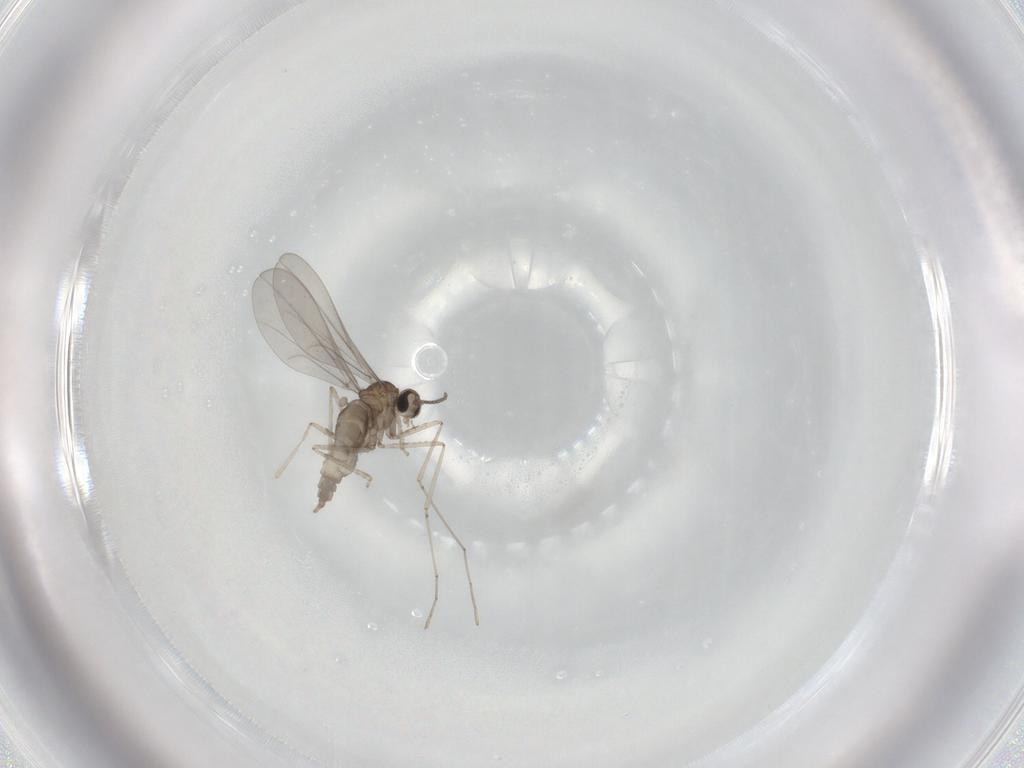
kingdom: Animalia
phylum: Arthropoda
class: Insecta
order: Diptera
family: Cecidomyiidae
